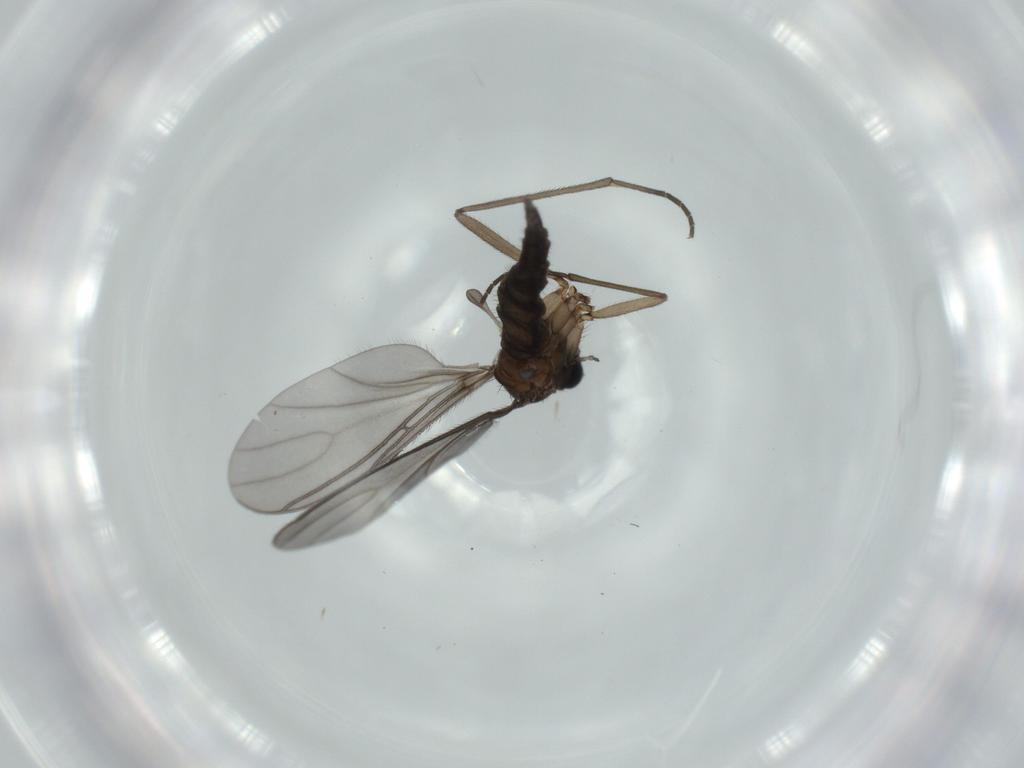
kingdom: Animalia
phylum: Arthropoda
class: Insecta
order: Diptera
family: Sciaridae
